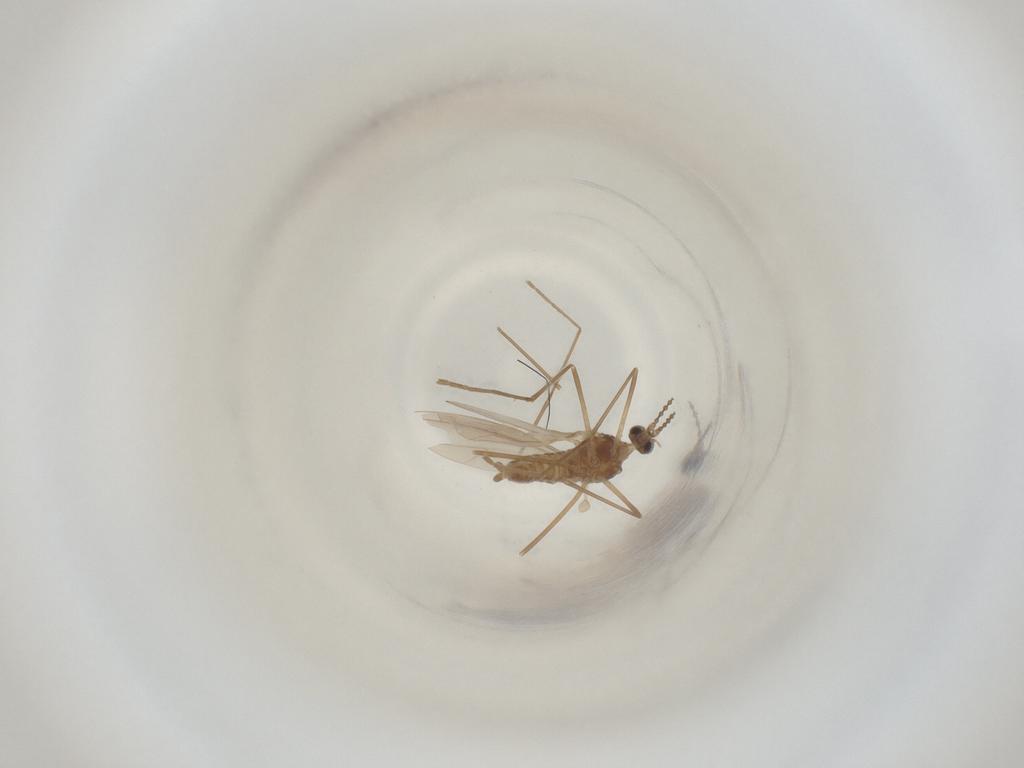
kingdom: Animalia
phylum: Arthropoda
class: Insecta
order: Diptera
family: Cecidomyiidae
